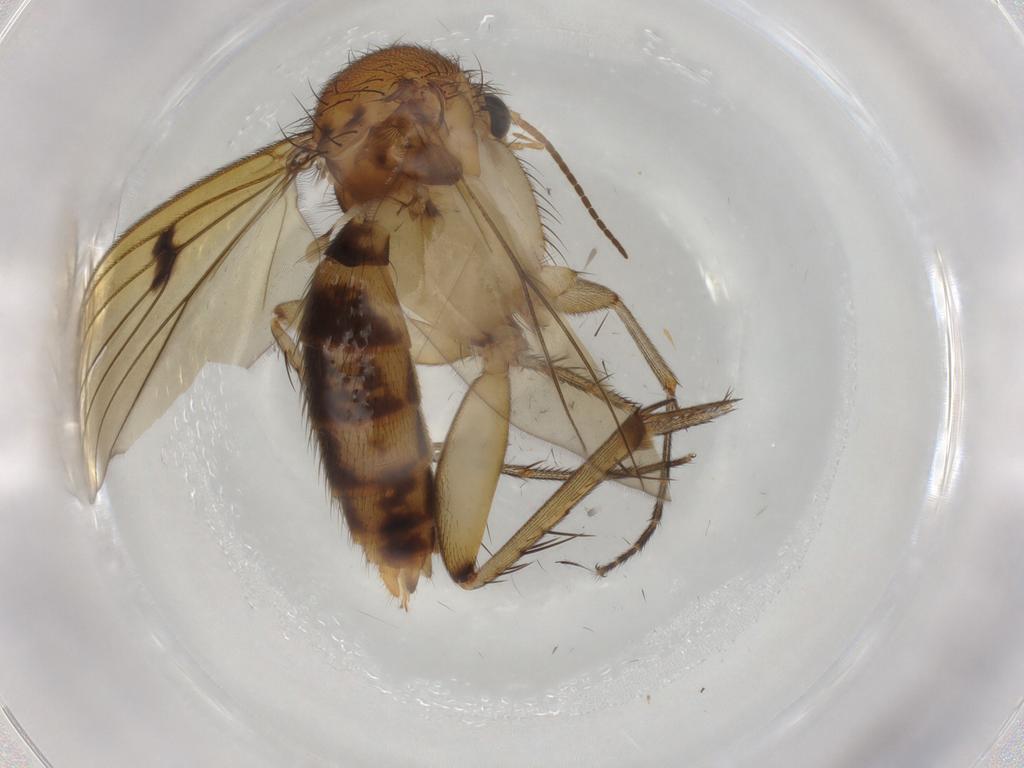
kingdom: Animalia
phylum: Arthropoda
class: Insecta
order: Diptera
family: Mycetophilidae
